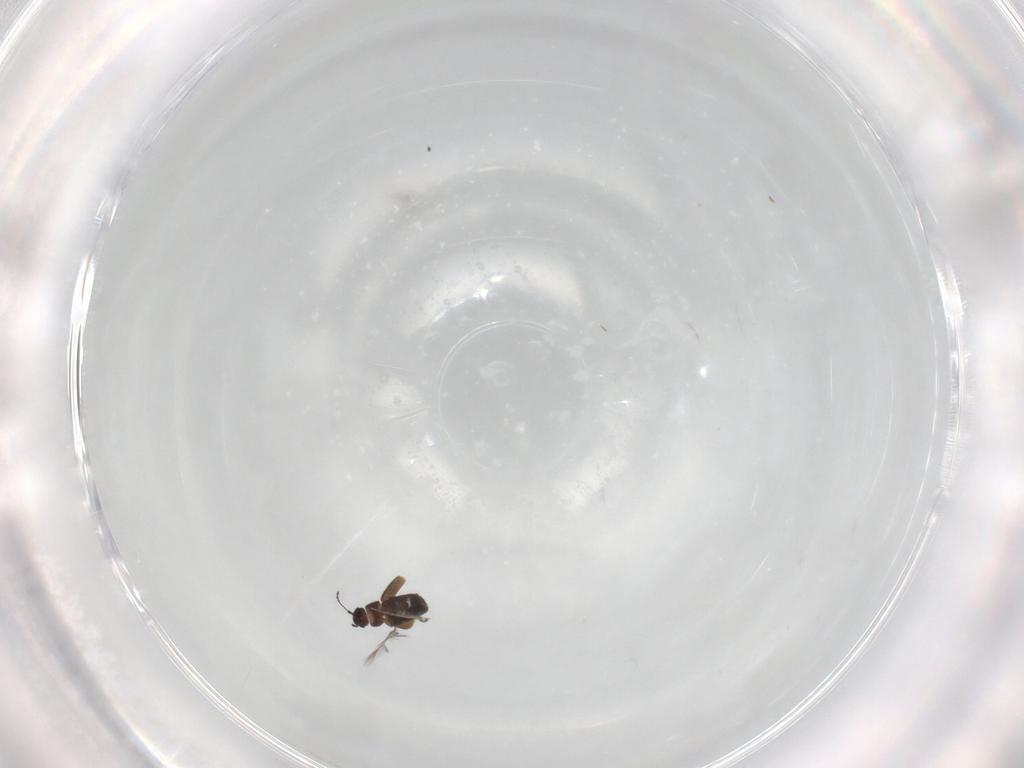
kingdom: Animalia
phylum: Arthropoda
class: Insecta
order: Coleoptera
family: Ptiliidae
